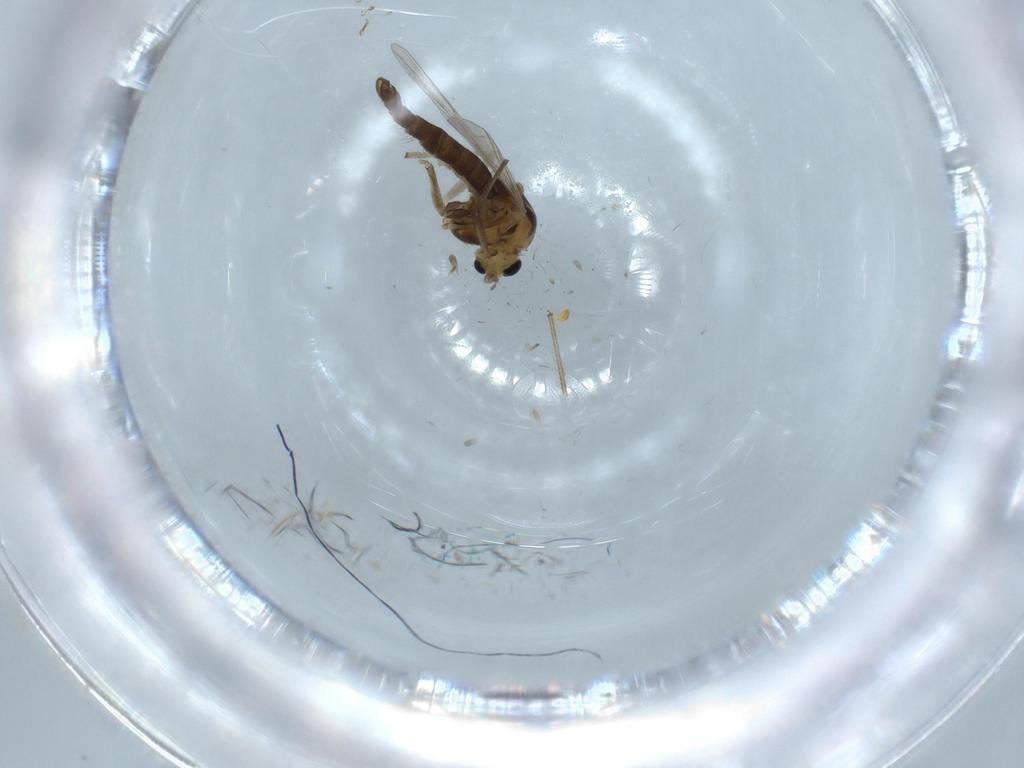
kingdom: Animalia
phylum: Arthropoda
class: Insecta
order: Diptera
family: Chironomidae
